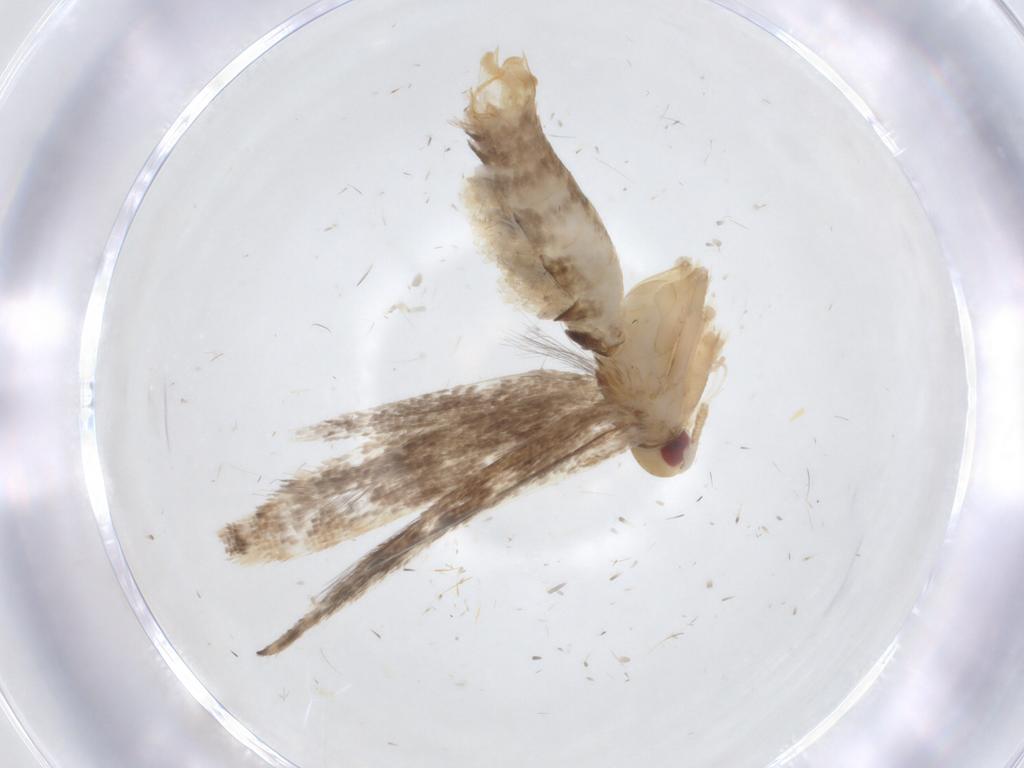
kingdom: Animalia
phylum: Arthropoda
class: Insecta
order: Lepidoptera
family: Cosmopterigidae
